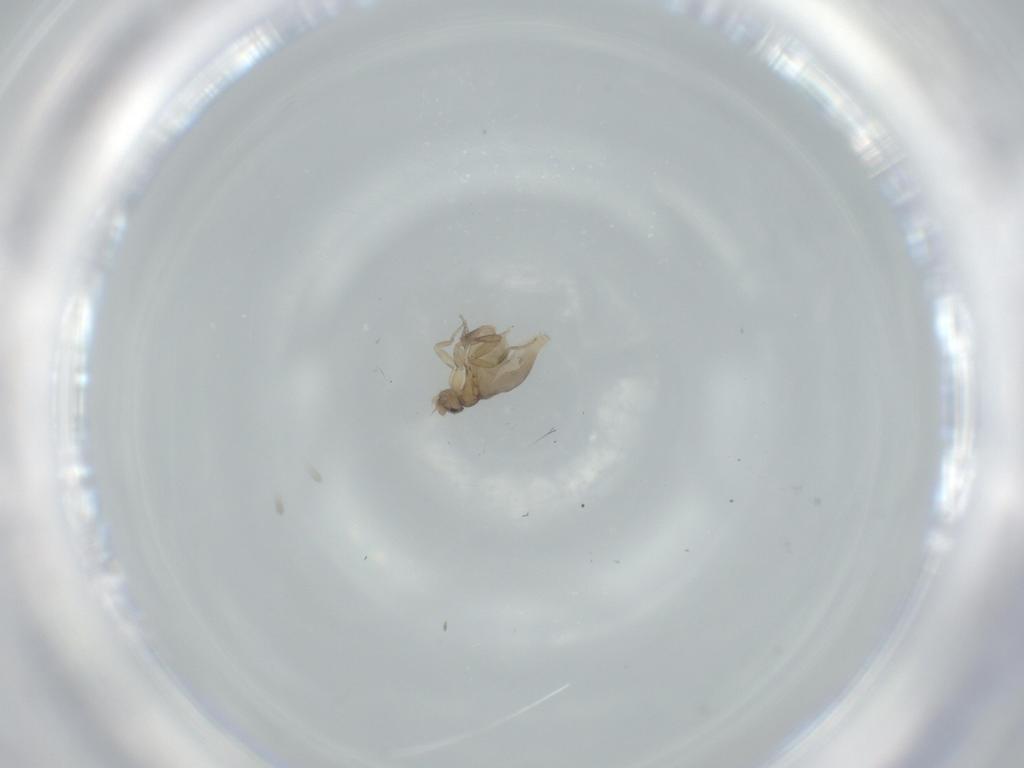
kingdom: Animalia
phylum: Arthropoda
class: Insecta
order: Diptera
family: Phoridae
